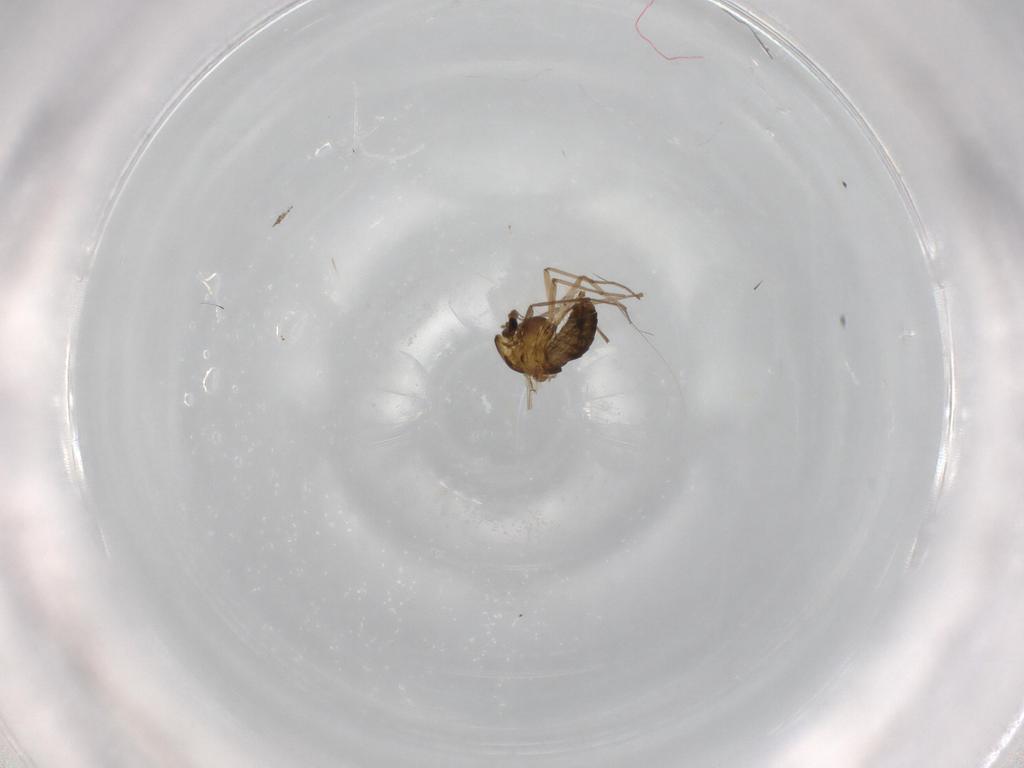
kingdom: Animalia
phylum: Arthropoda
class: Insecta
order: Diptera
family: Chironomidae
